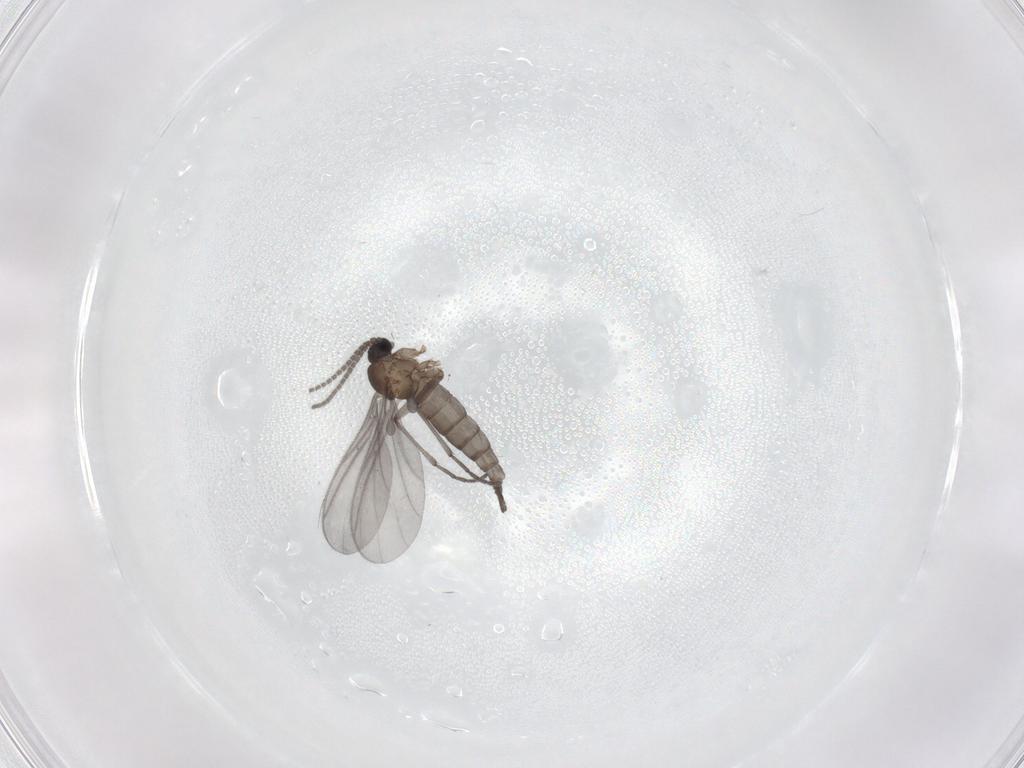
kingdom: Animalia
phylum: Arthropoda
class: Insecta
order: Diptera
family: Sciaridae
